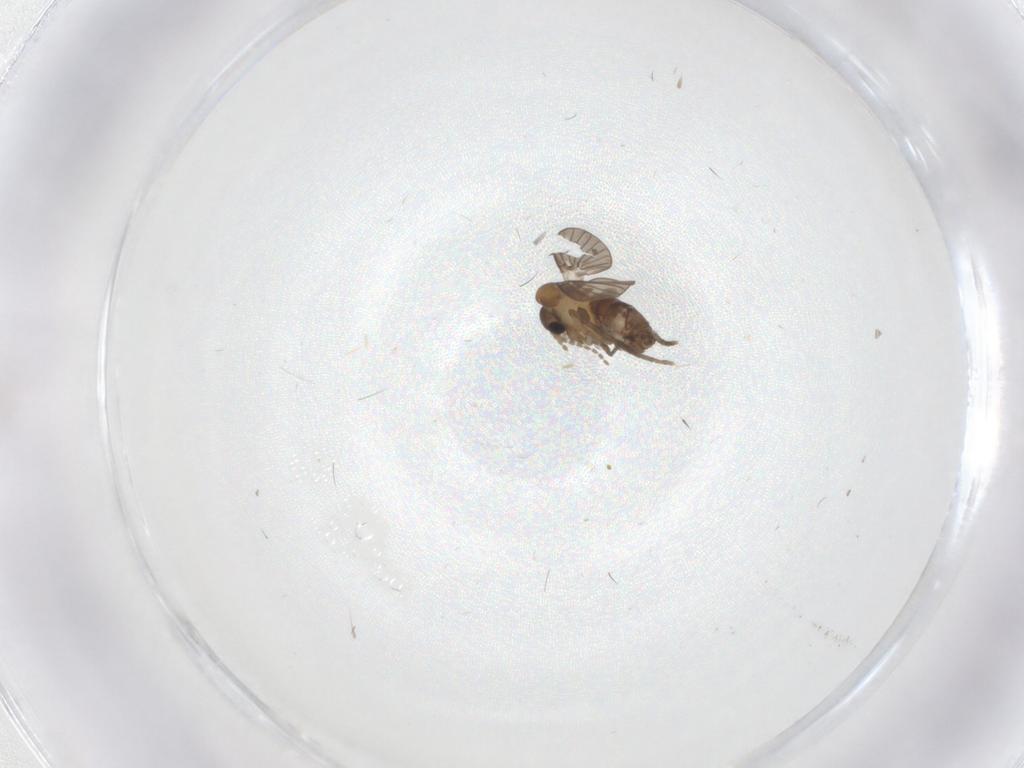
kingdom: Animalia
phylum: Arthropoda
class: Insecta
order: Diptera
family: Psychodidae
